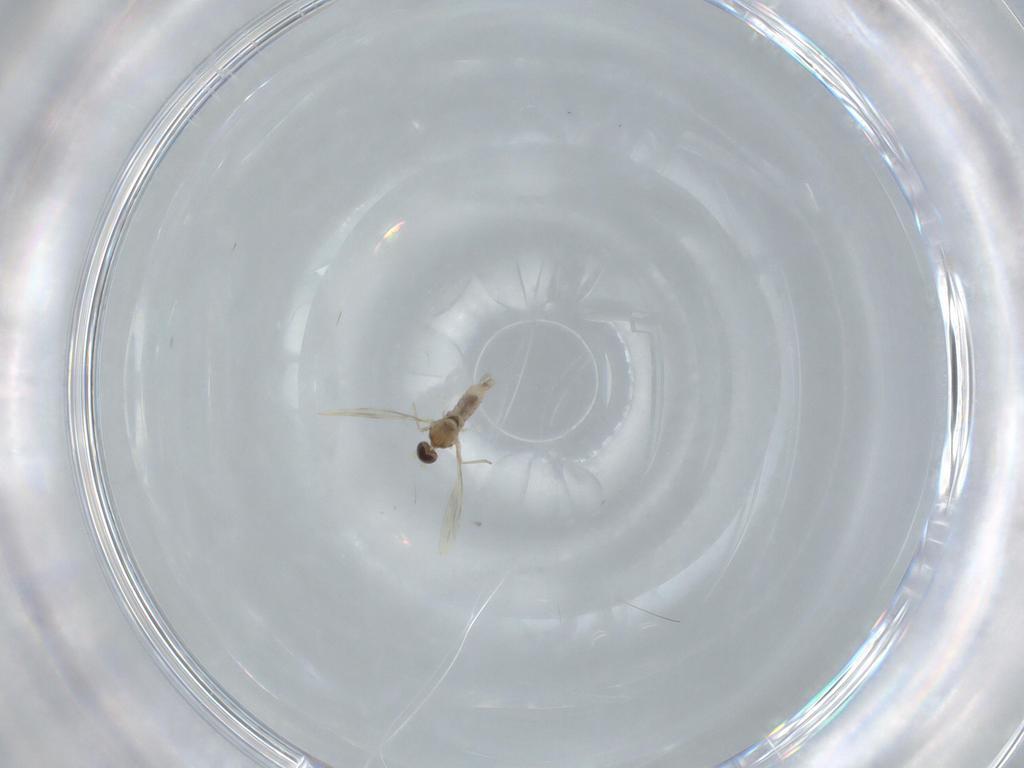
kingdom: Animalia
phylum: Arthropoda
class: Insecta
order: Diptera
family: Cecidomyiidae
